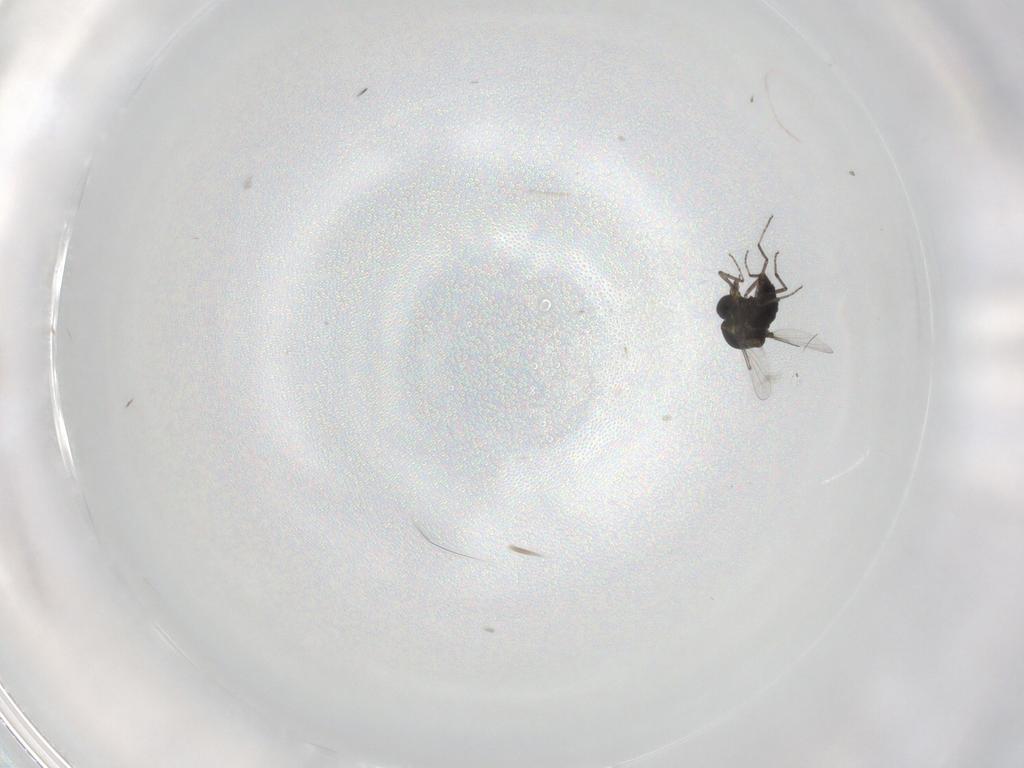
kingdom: Animalia
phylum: Arthropoda
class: Insecta
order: Diptera
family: Ceratopogonidae
